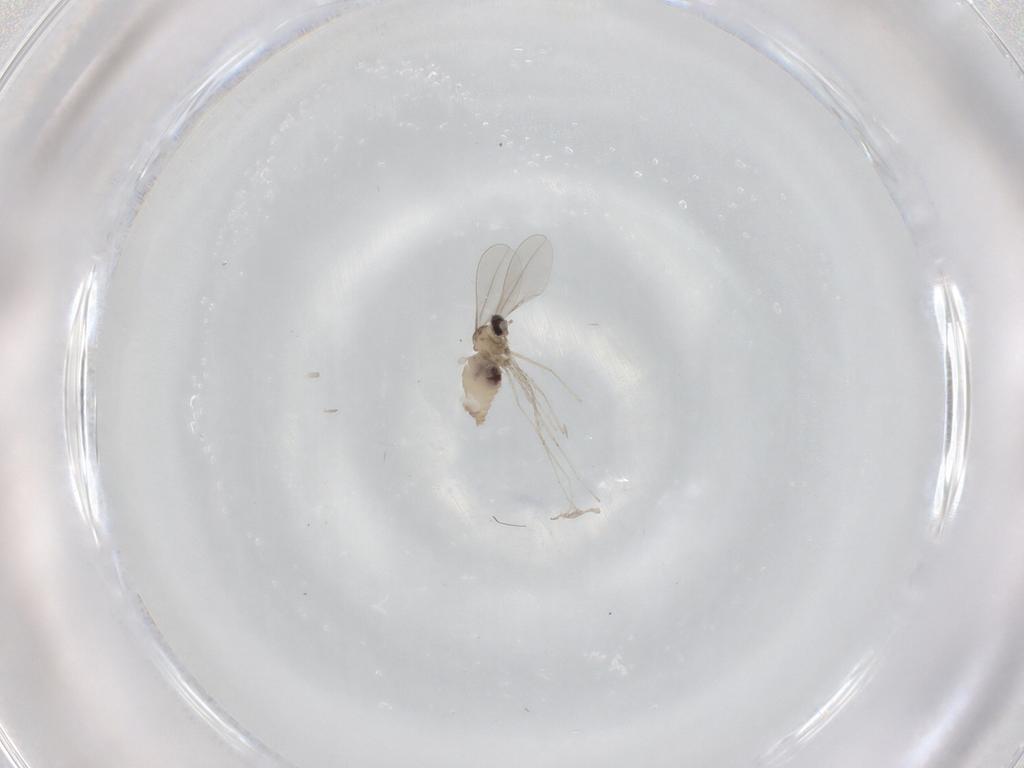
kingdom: Animalia
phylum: Arthropoda
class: Insecta
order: Diptera
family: Cecidomyiidae
